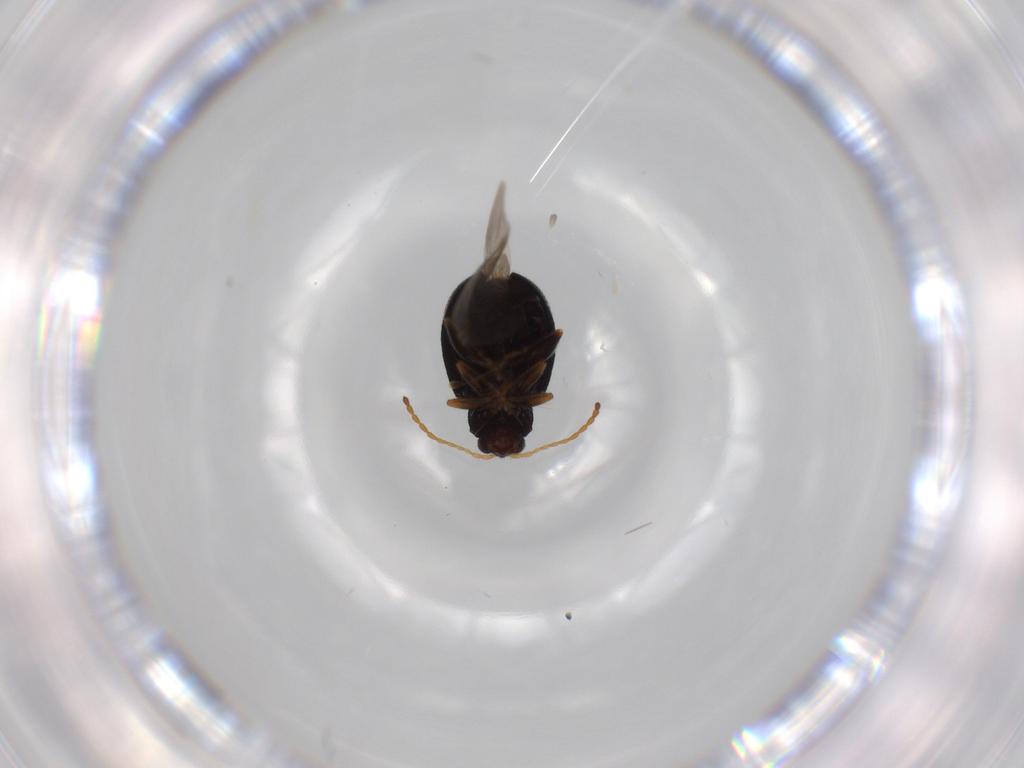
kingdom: Animalia
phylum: Arthropoda
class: Insecta
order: Coleoptera
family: Chrysomelidae
